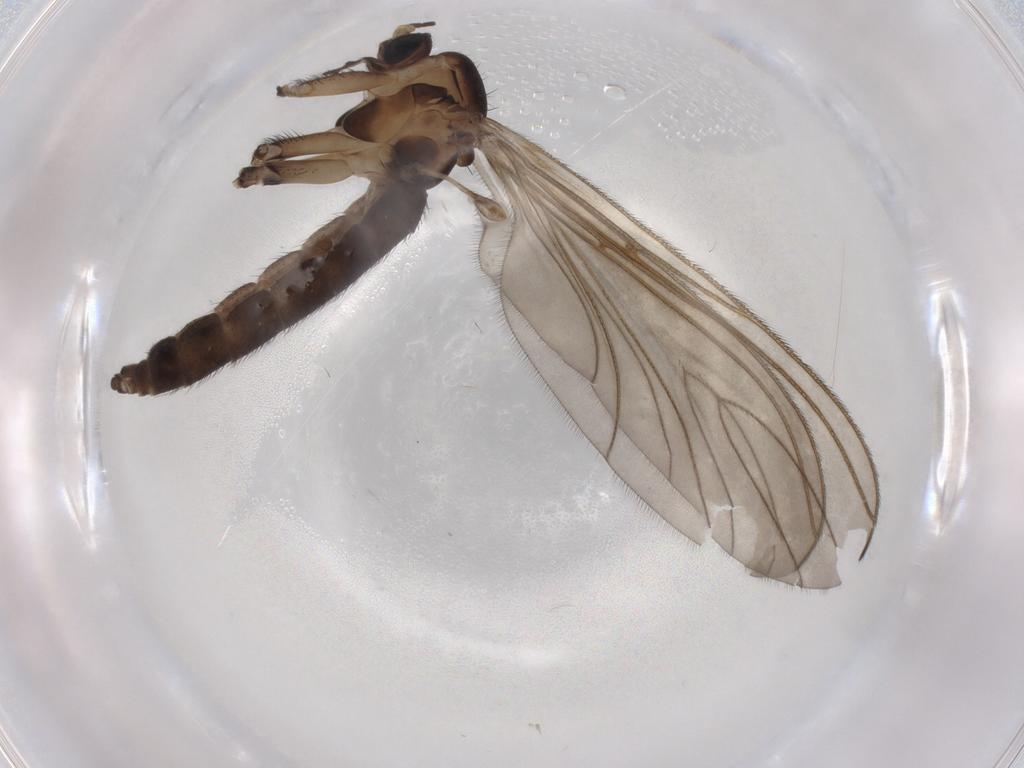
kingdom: Animalia
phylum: Arthropoda
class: Insecta
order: Diptera
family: Sciaridae
